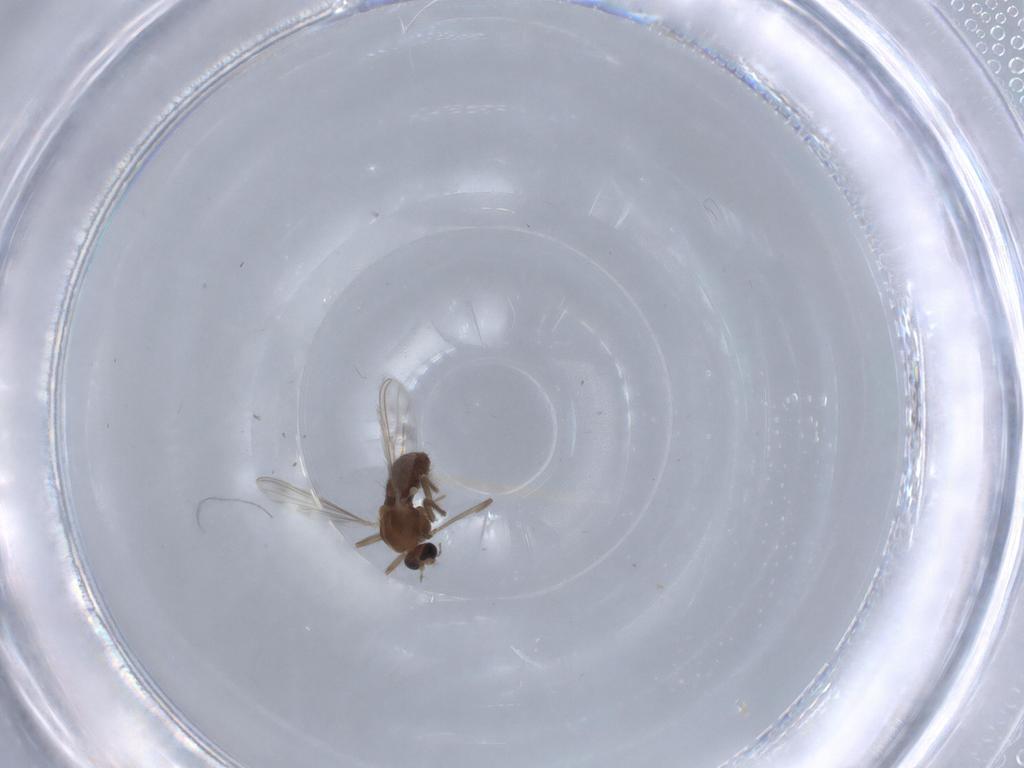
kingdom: Animalia
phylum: Arthropoda
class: Insecta
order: Diptera
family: Chironomidae
